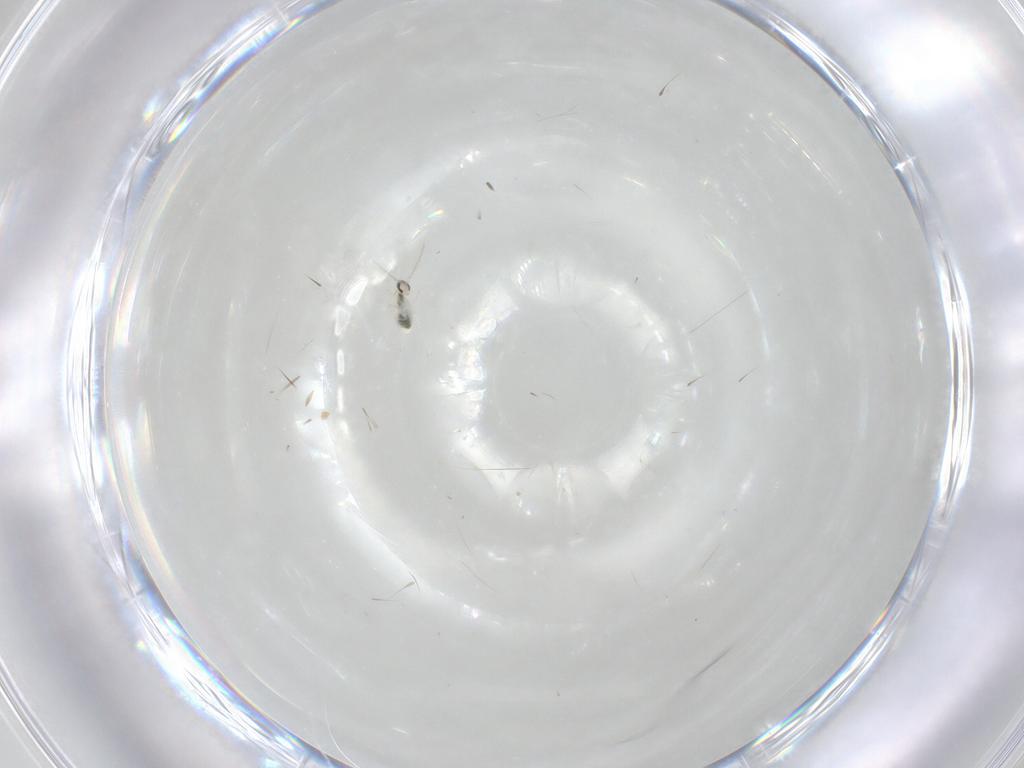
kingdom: Animalia
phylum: Arthropoda
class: Insecta
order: Diptera
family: Cecidomyiidae
